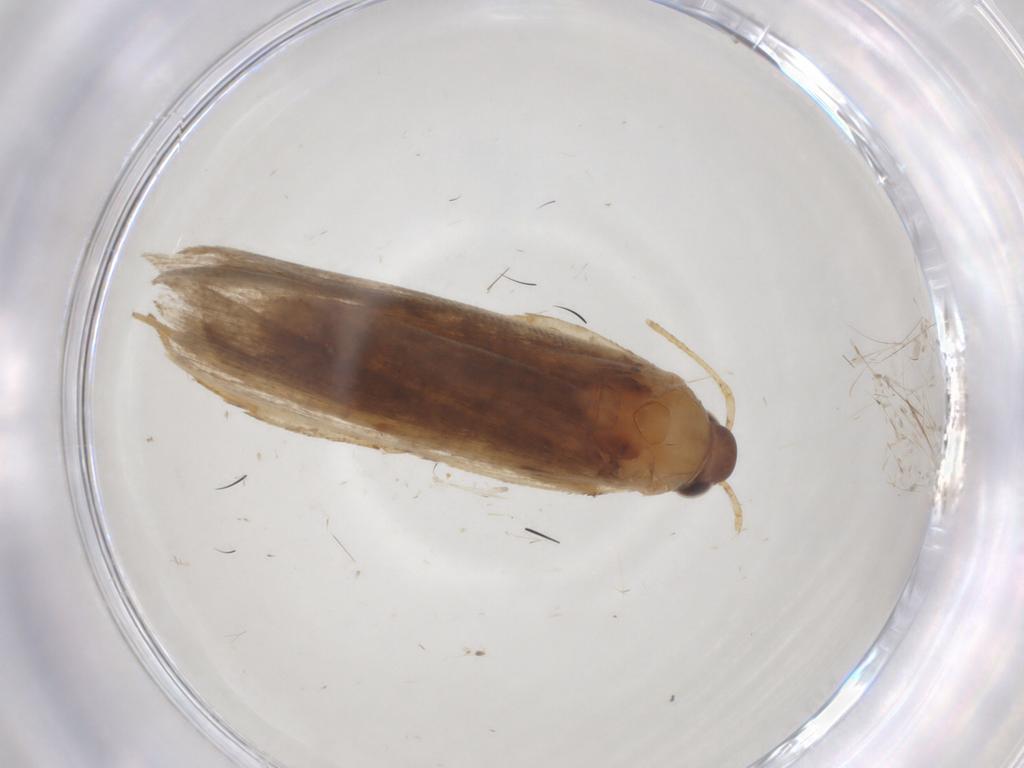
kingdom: Animalia
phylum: Arthropoda
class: Insecta
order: Lepidoptera
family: Gelechiidae
